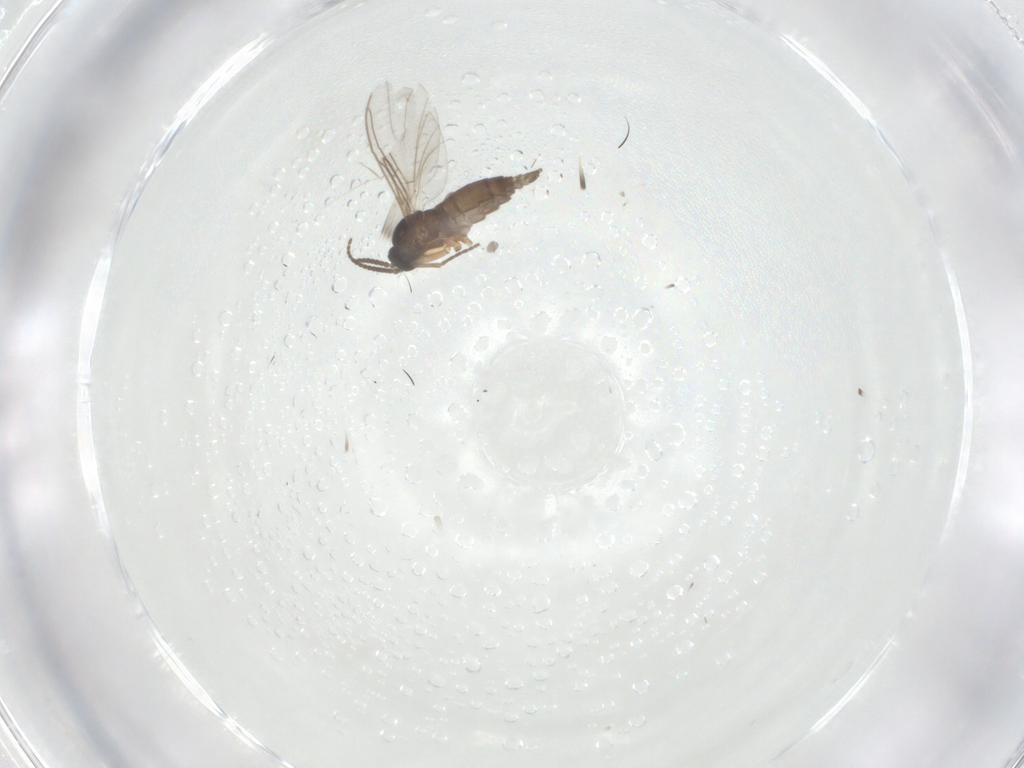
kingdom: Animalia
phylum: Arthropoda
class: Insecta
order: Diptera
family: Sciaridae
